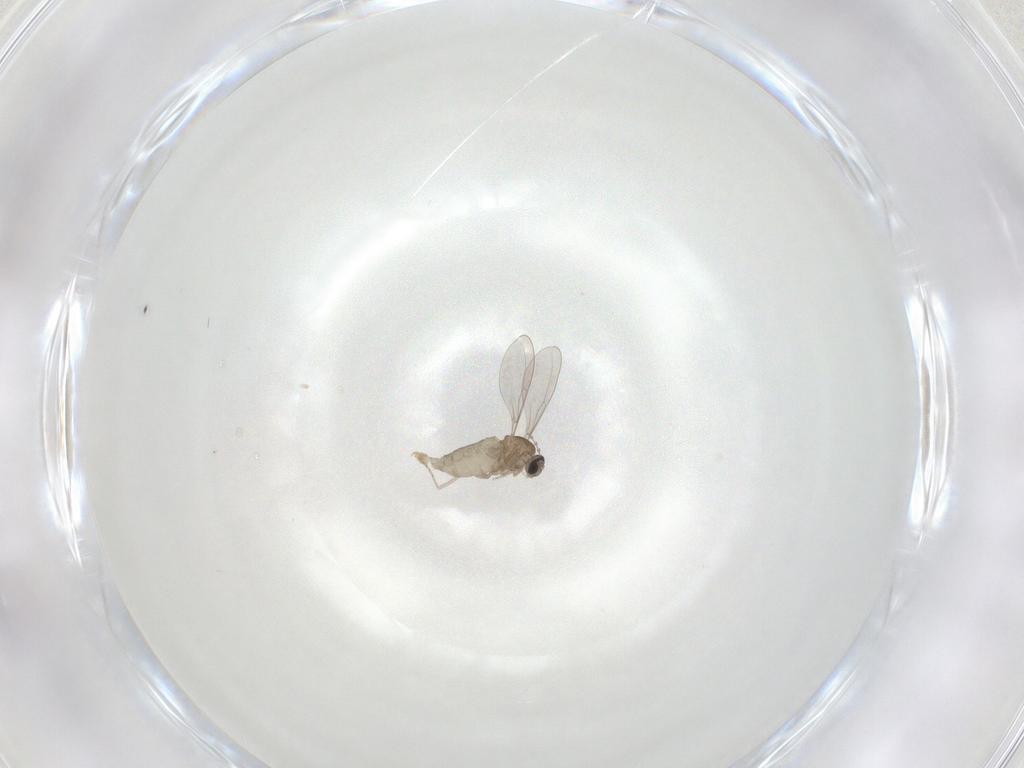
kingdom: Animalia
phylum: Arthropoda
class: Insecta
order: Diptera
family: Cecidomyiidae
